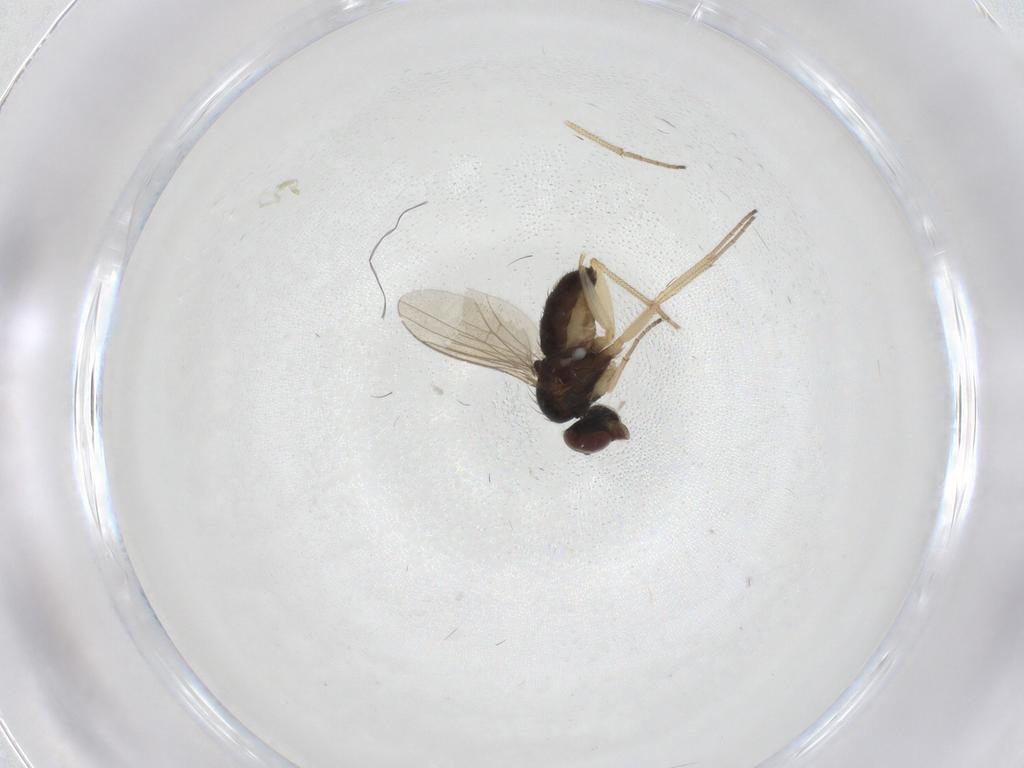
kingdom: Animalia
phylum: Arthropoda
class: Insecta
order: Diptera
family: Dolichopodidae
